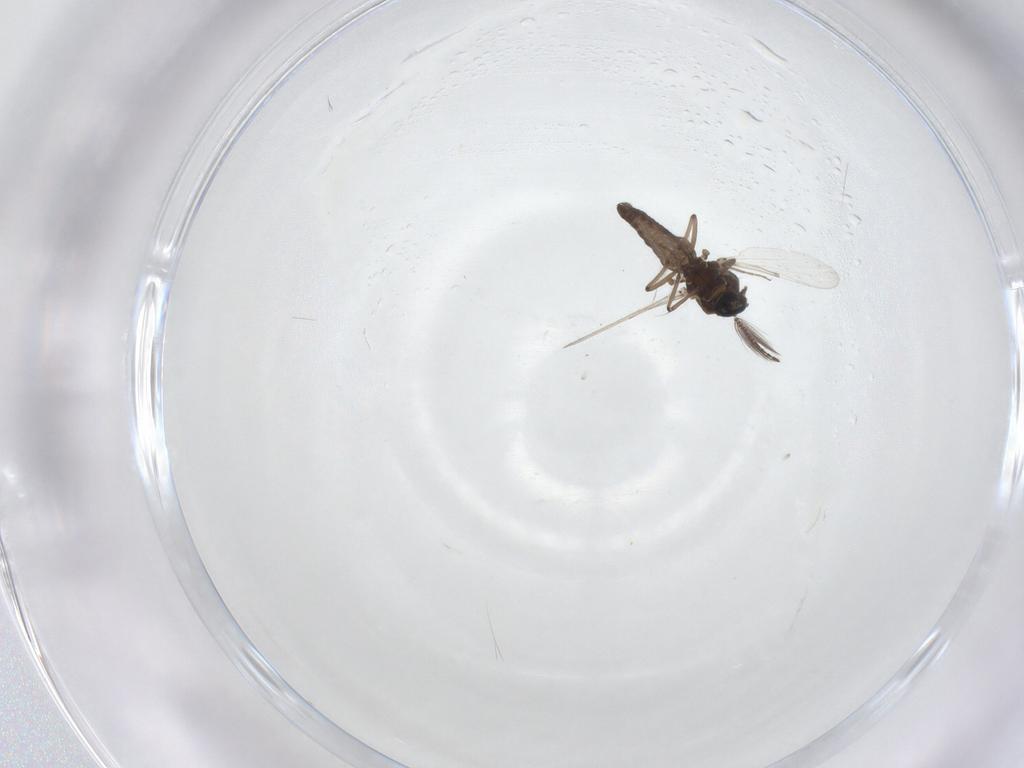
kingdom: Animalia
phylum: Arthropoda
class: Insecta
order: Diptera
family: Ceratopogonidae
